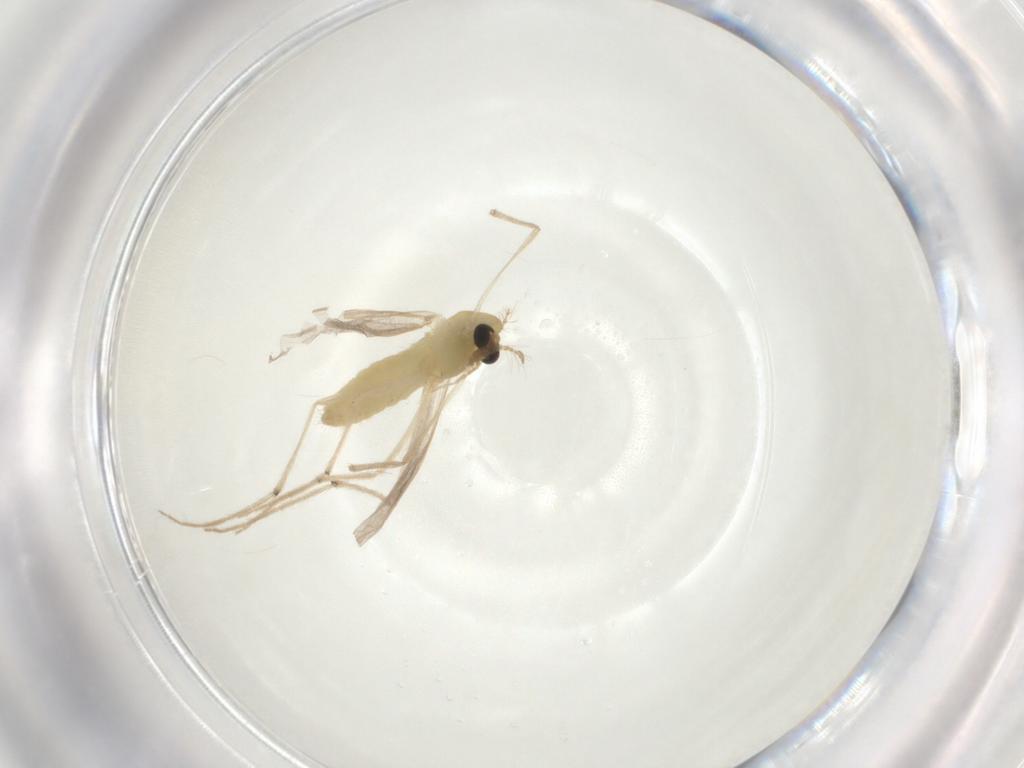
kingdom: Animalia
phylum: Arthropoda
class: Insecta
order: Diptera
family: Chironomidae
